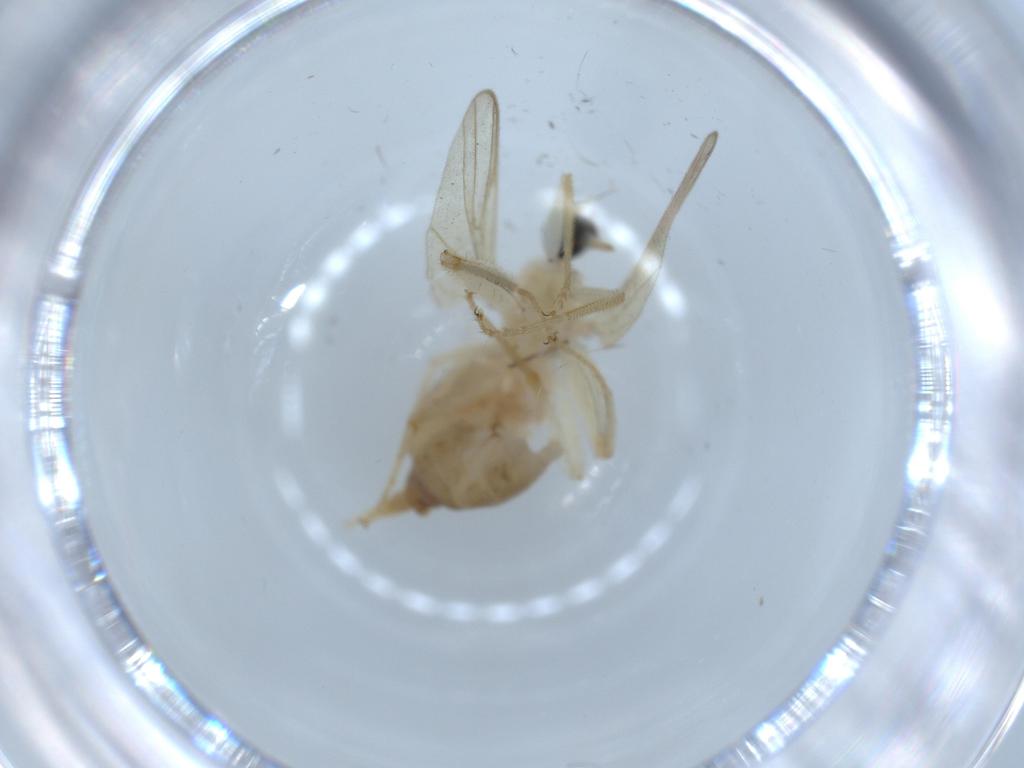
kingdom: Animalia
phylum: Arthropoda
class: Insecta
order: Diptera
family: Hybotidae
